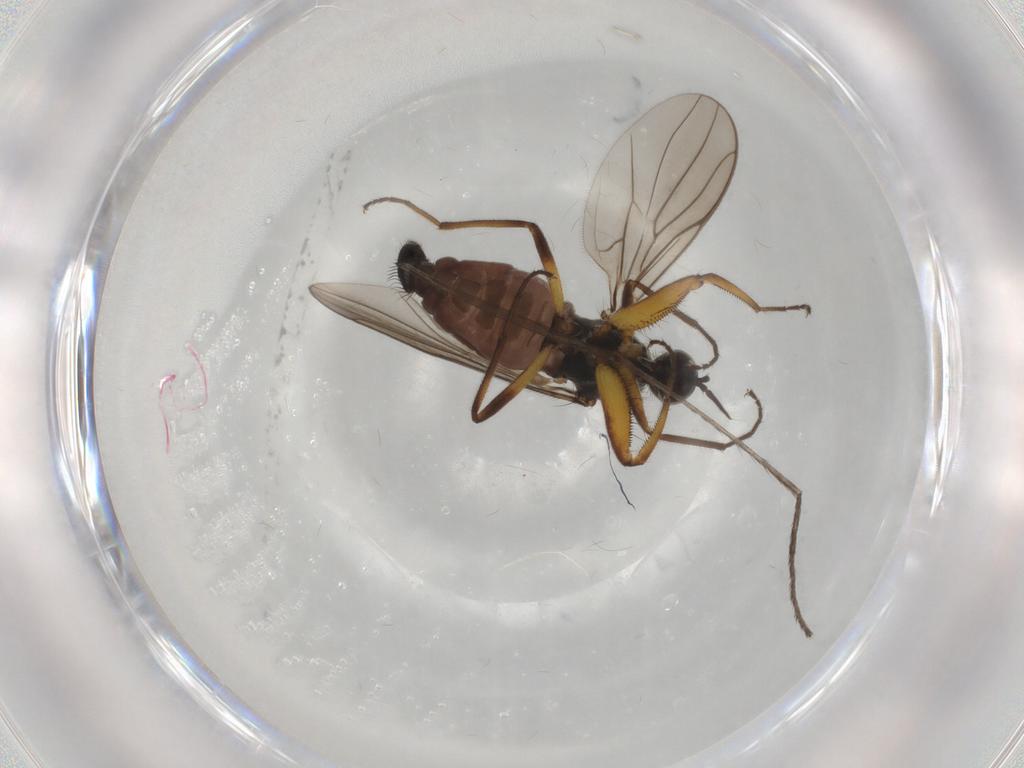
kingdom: Animalia
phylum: Arthropoda
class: Insecta
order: Diptera
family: Hybotidae
